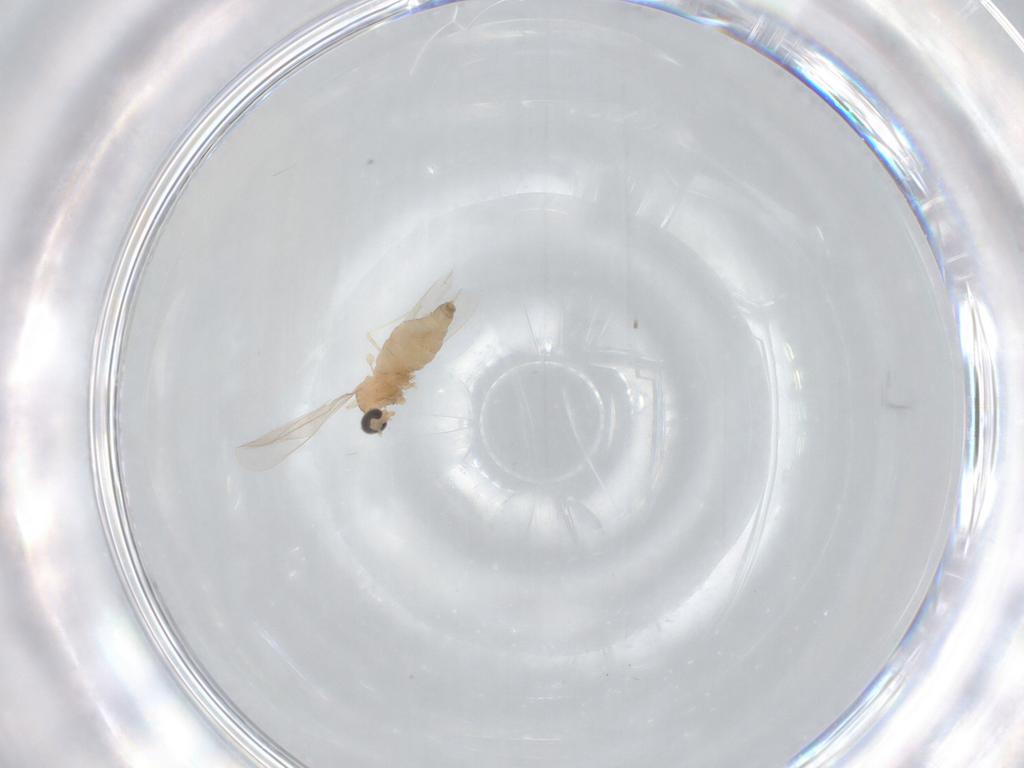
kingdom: Animalia
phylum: Arthropoda
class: Insecta
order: Diptera
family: Cecidomyiidae
